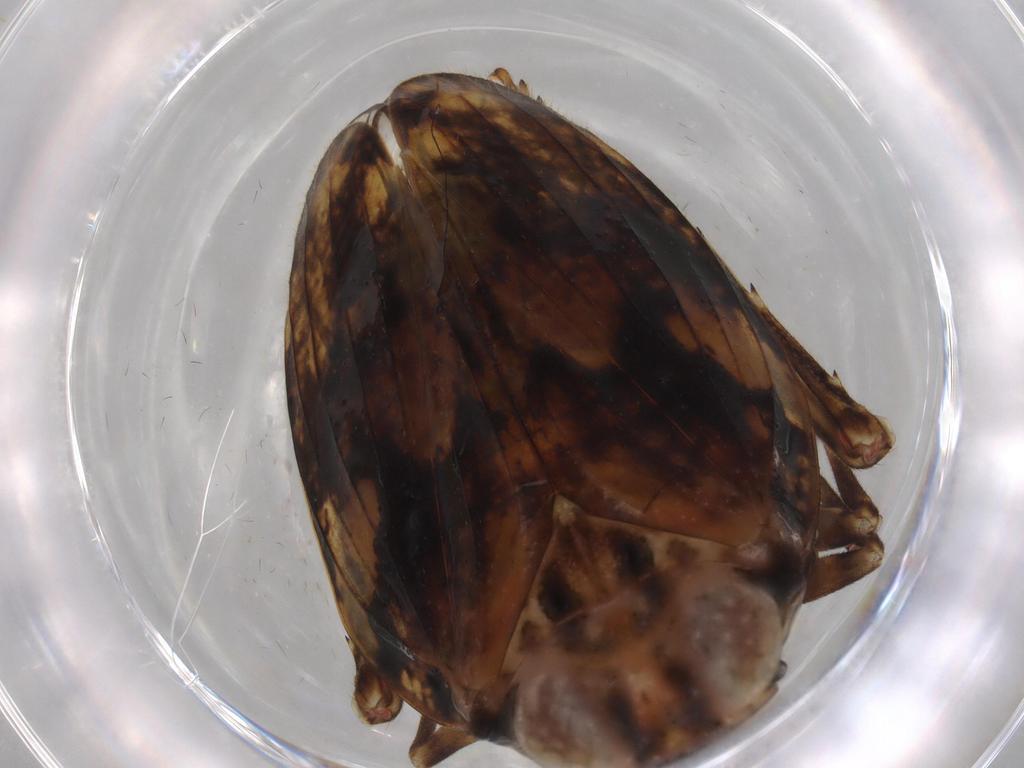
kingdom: Animalia
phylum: Arthropoda
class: Insecta
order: Hemiptera
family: Issidae
